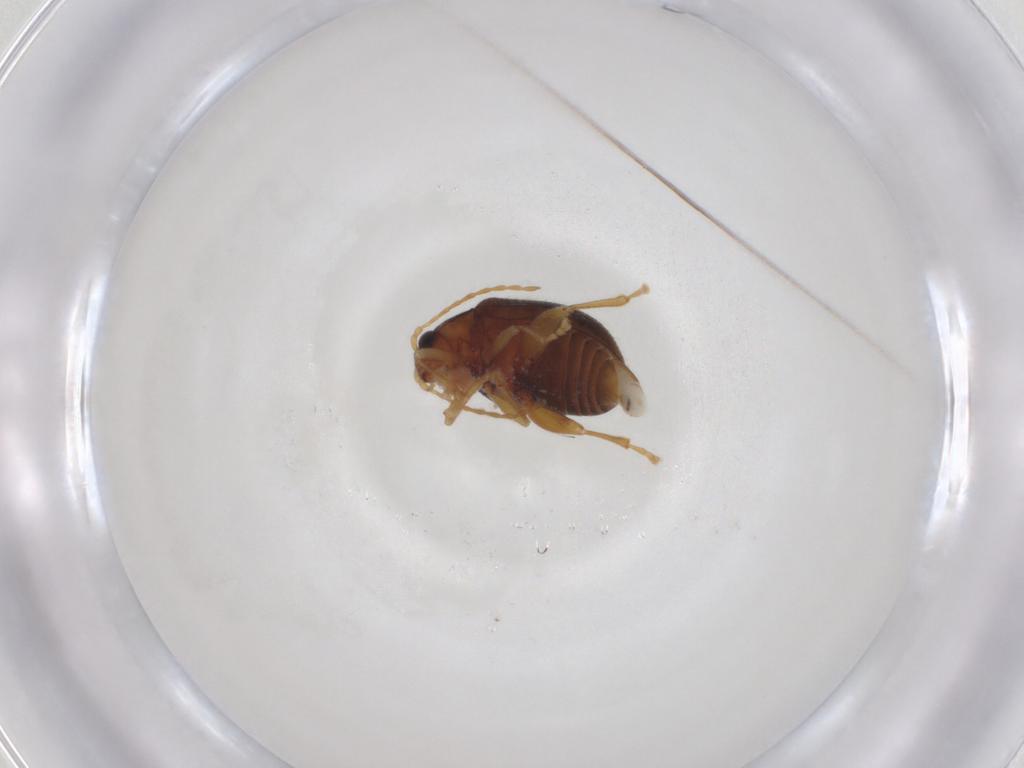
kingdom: Animalia
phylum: Arthropoda
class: Insecta
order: Coleoptera
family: Chrysomelidae
